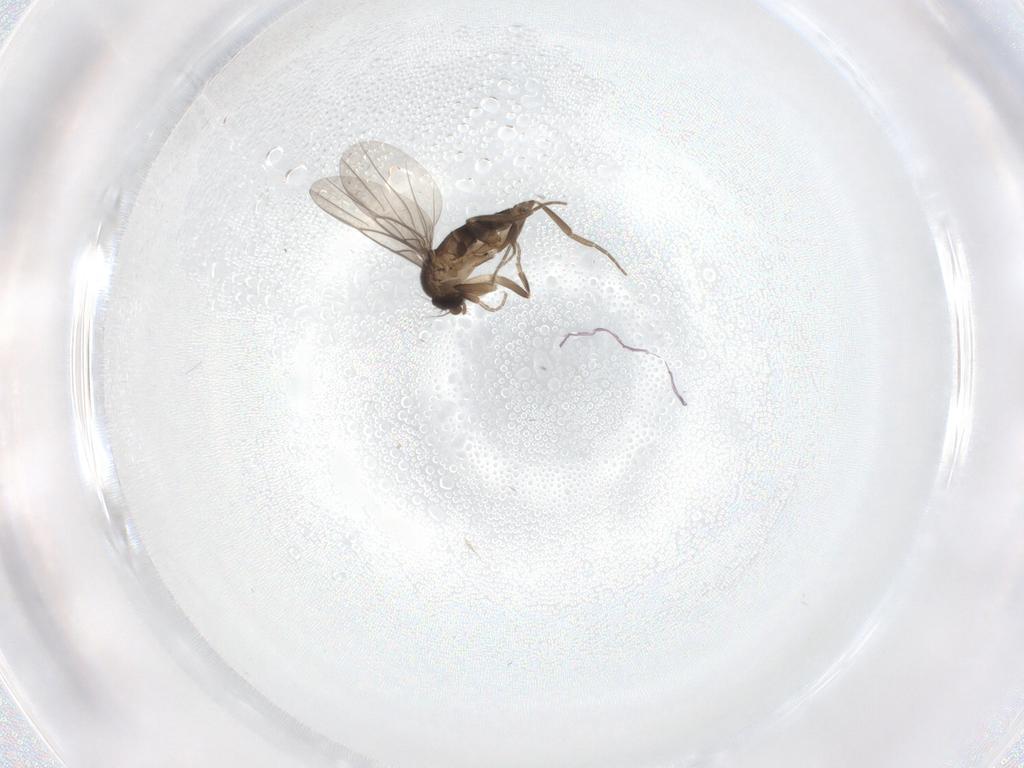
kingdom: Animalia
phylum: Arthropoda
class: Insecta
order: Diptera
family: Phoridae
